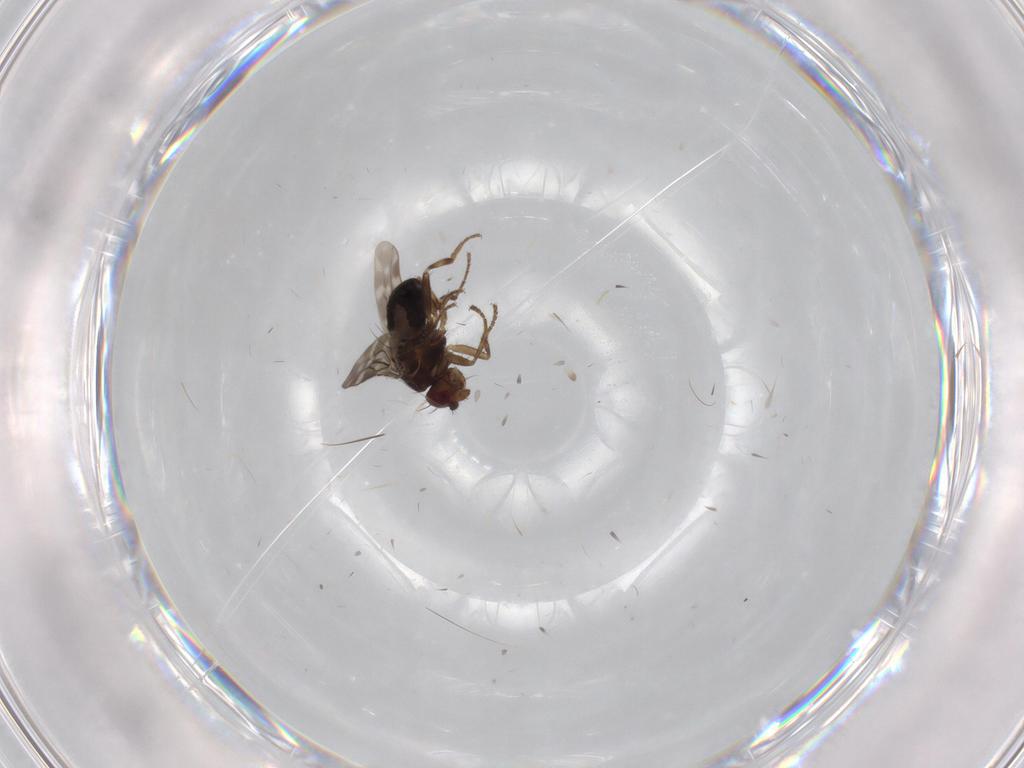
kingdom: Animalia
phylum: Arthropoda
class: Insecta
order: Diptera
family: Sphaeroceridae
